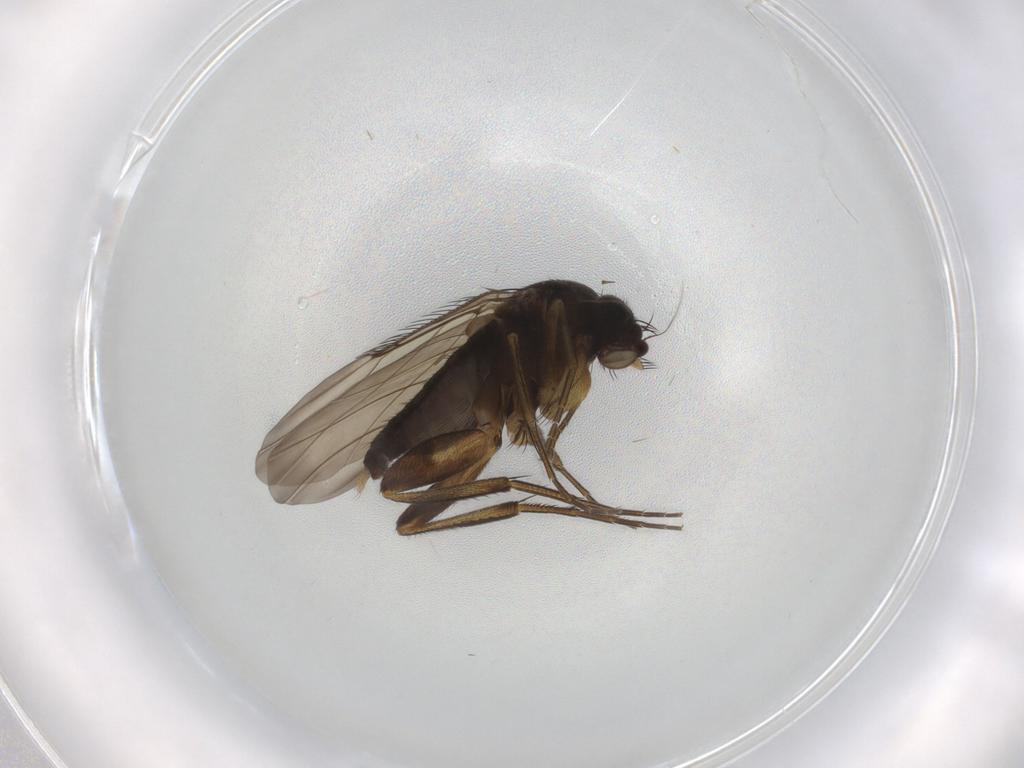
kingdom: Animalia
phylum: Arthropoda
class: Insecta
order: Diptera
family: Phoridae
